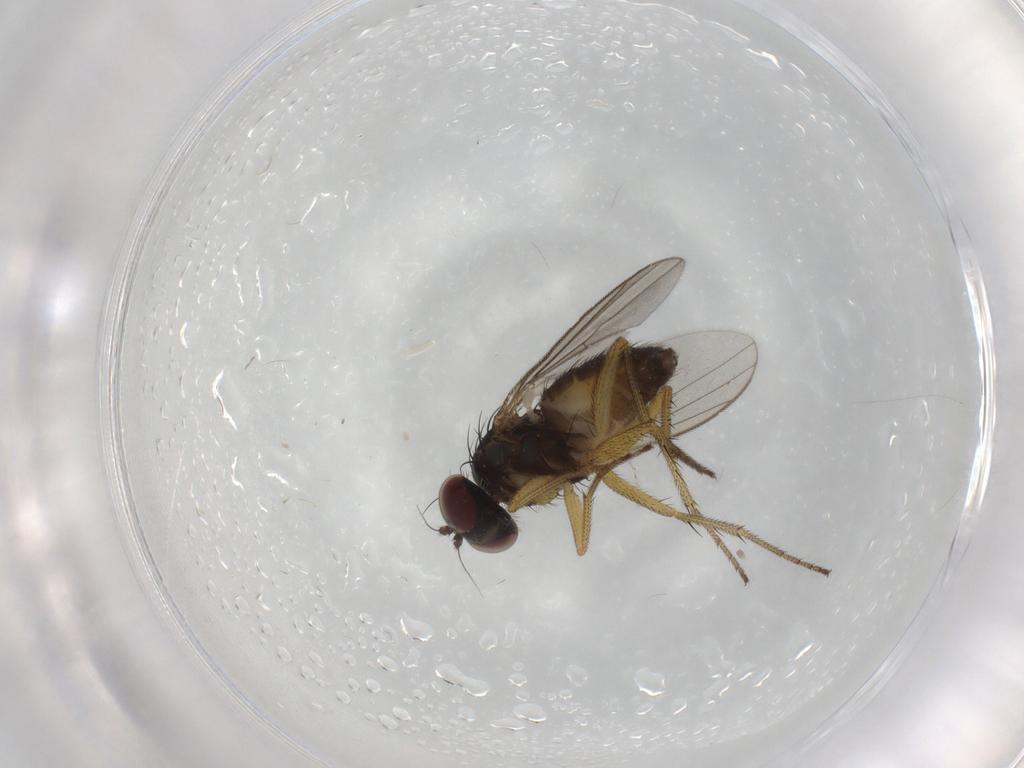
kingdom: Animalia
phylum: Arthropoda
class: Insecta
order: Diptera
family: Dolichopodidae
